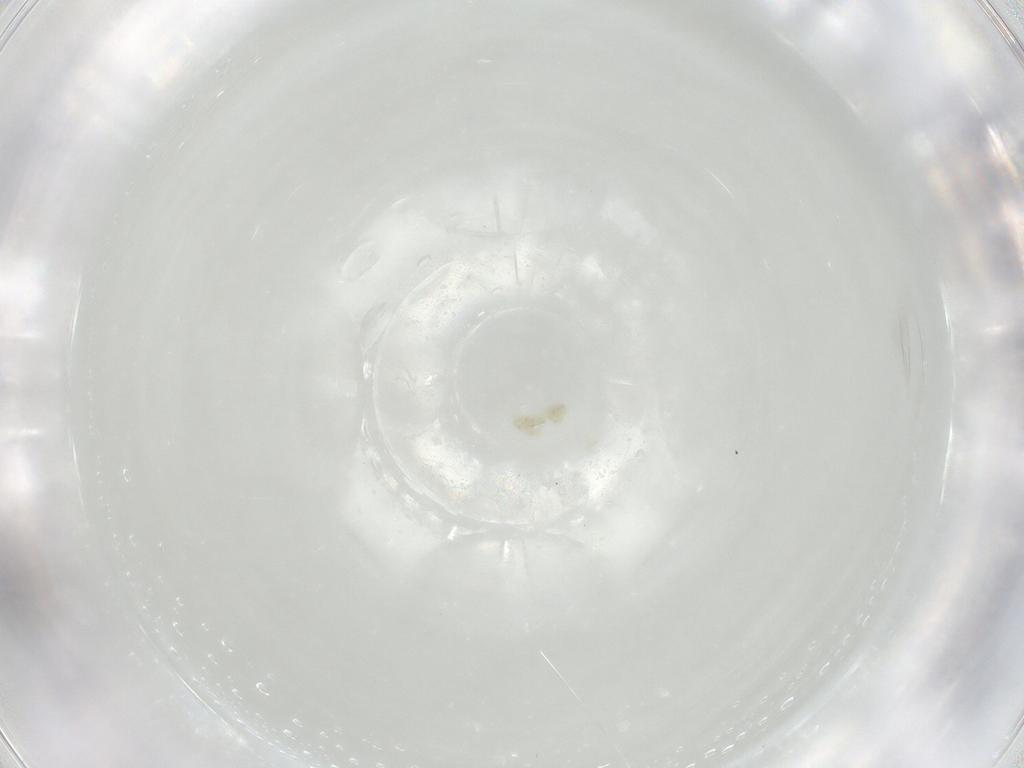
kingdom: Animalia
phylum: Arthropoda
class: Arachnida
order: Trombidiformes
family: Eupodidae
